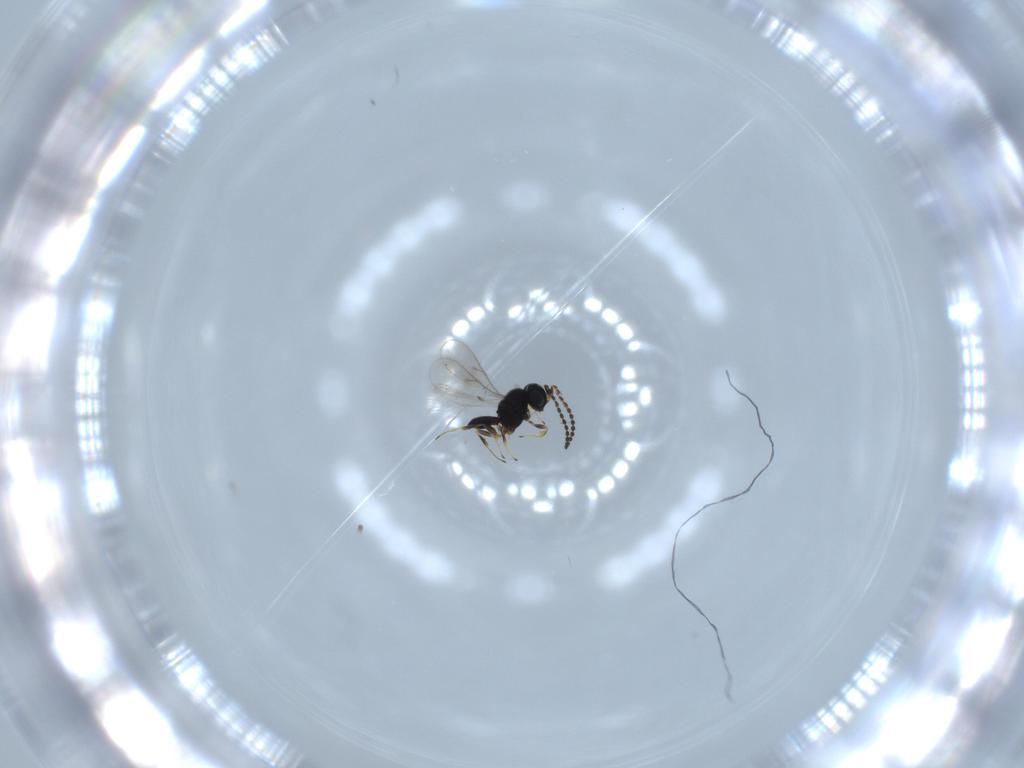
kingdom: Animalia
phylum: Arthropoda
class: Insecta
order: Hymenoptera
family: Scelionidae
